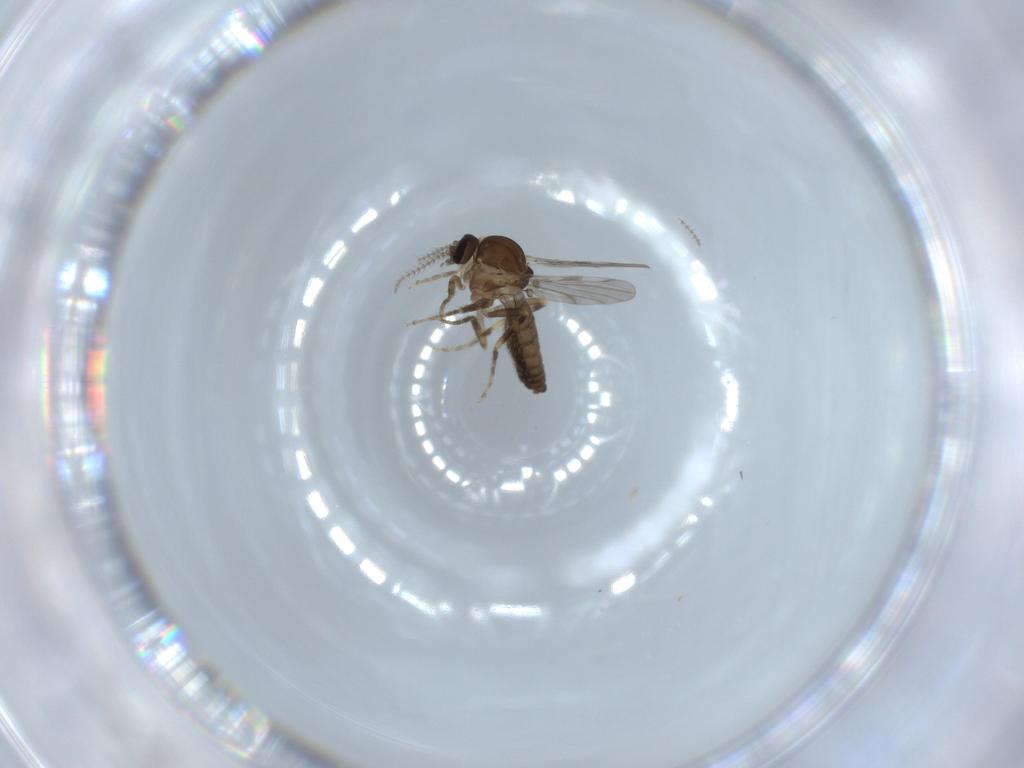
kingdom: Animalia
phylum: Arthropoda
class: Insecta
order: Diptera
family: Ceratopogonidae
